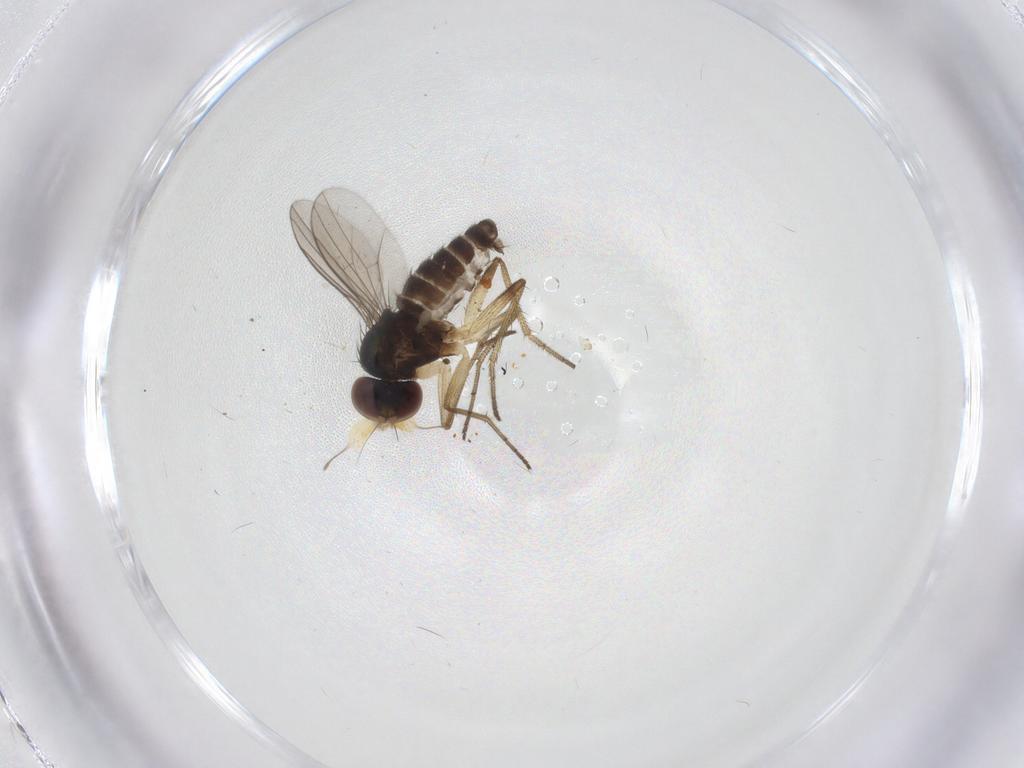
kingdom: Animalia
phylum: Arthropoda
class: Insecta
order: Diptera
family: Dolichopodidae
